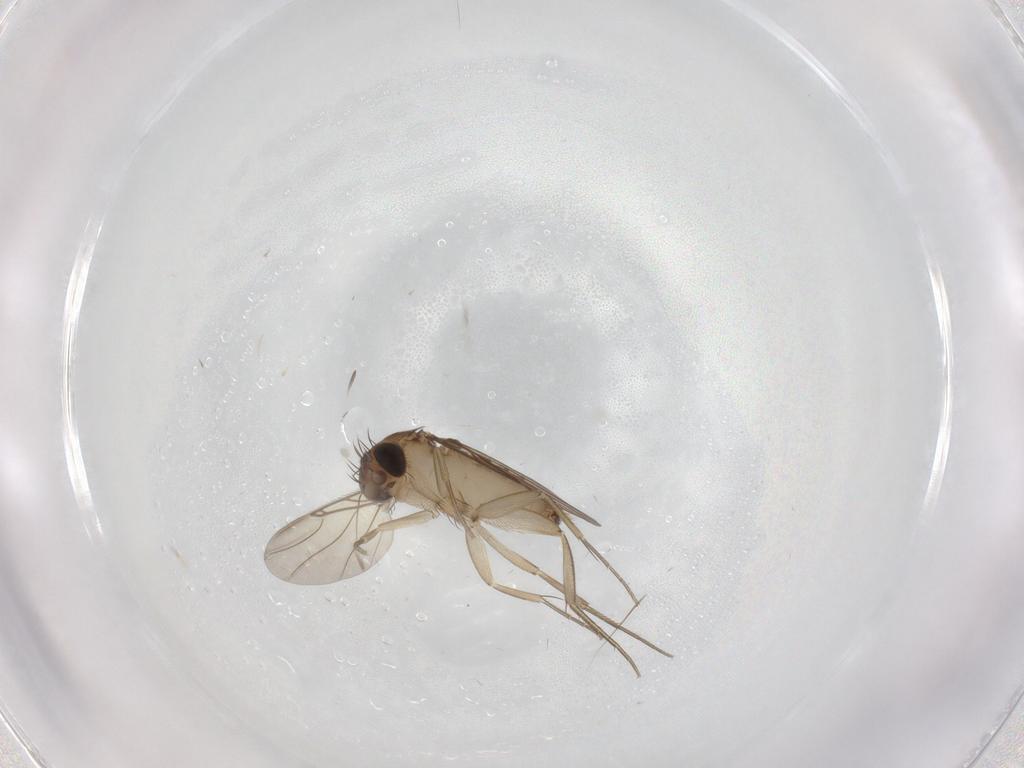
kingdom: Animalia
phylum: Arthropoda
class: Insecta
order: Diptera
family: Phoridae
